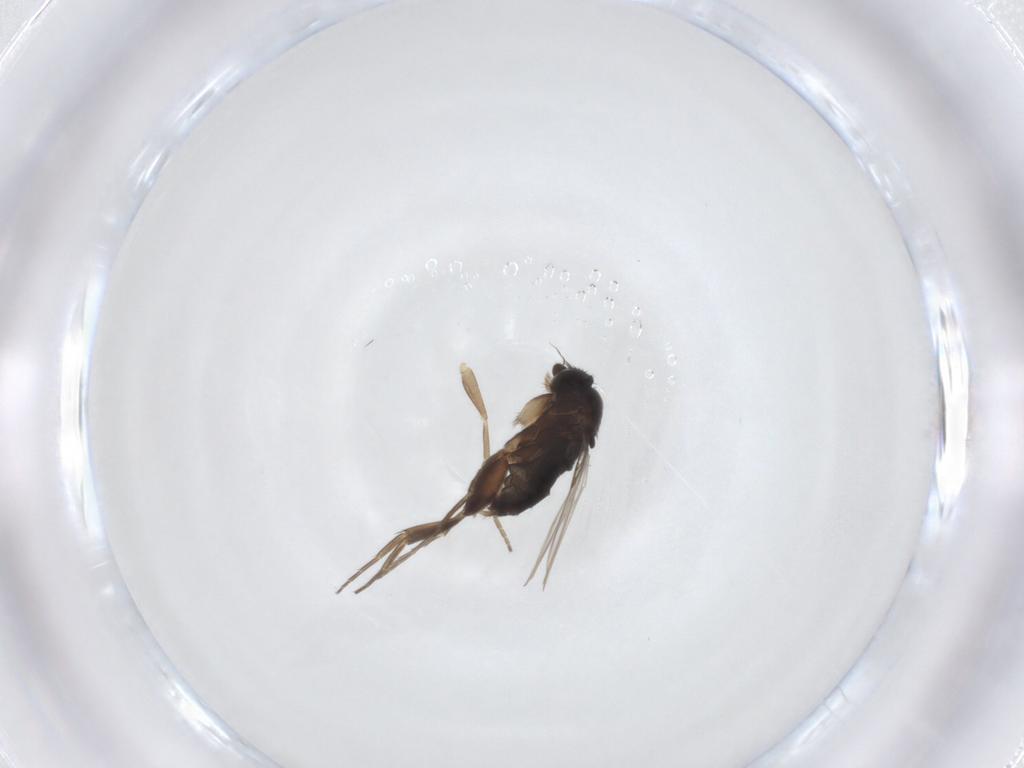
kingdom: Animalia
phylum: Arthropoda
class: Insecta
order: Diptera
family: Phoridae
